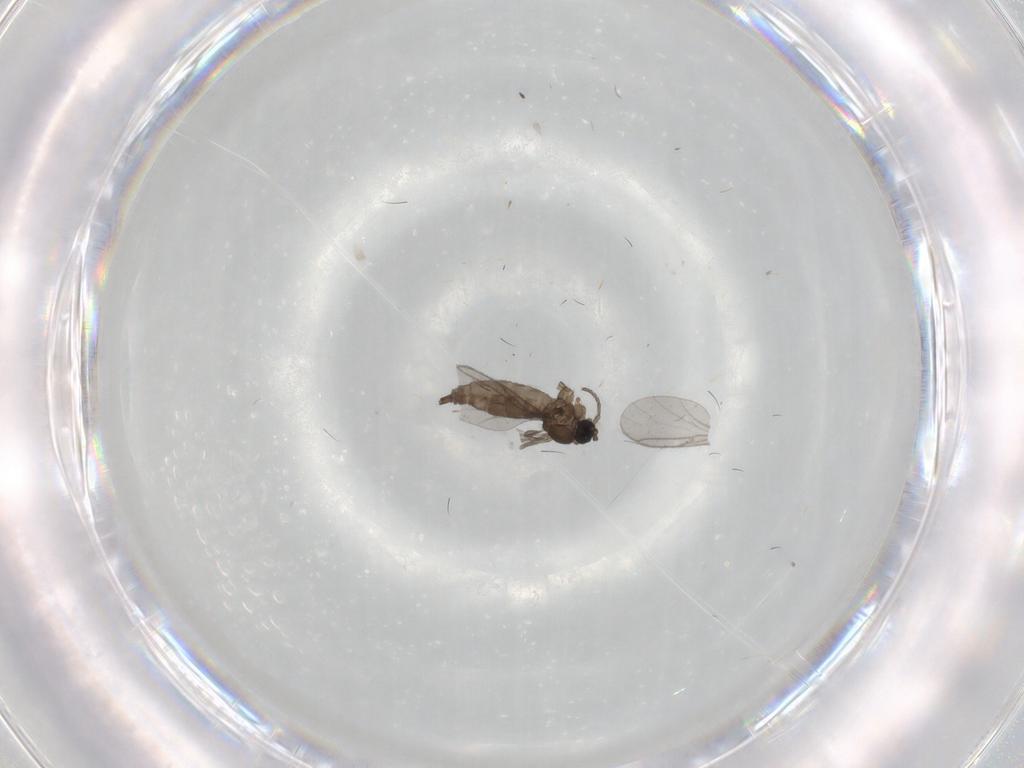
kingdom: Animalia
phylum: Arthropoda
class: Insecta
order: Diptera
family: Sciaridae
